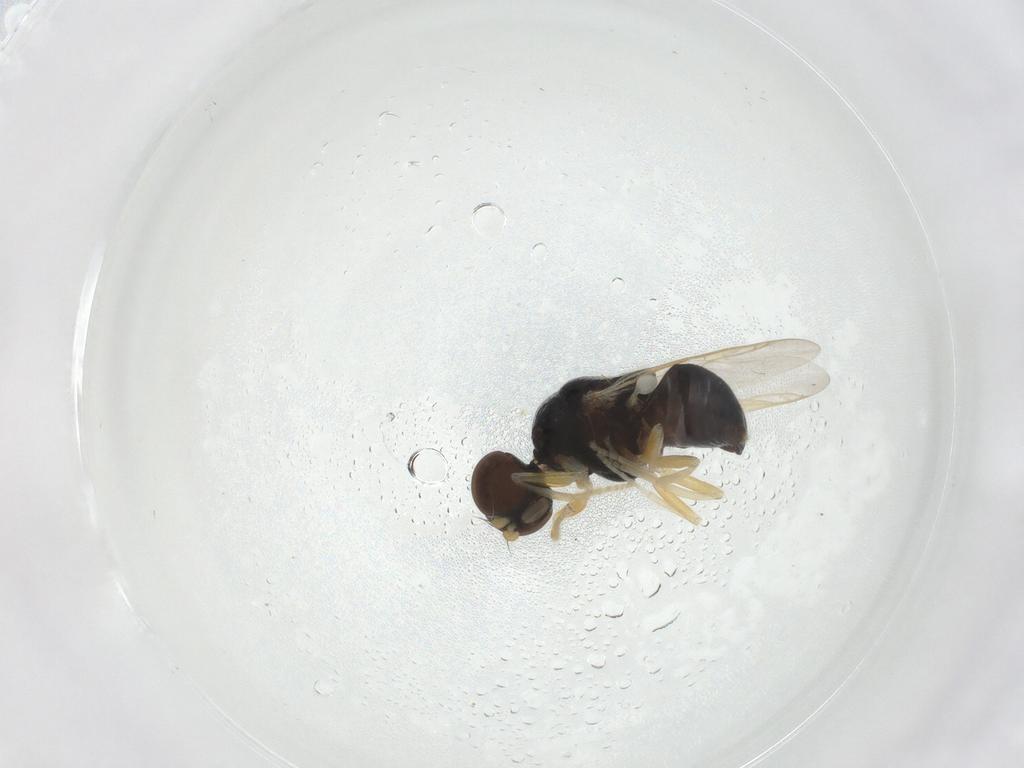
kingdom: Animalia
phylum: Arthropoda
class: Insecta
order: Diptera
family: Stratiomyidae
